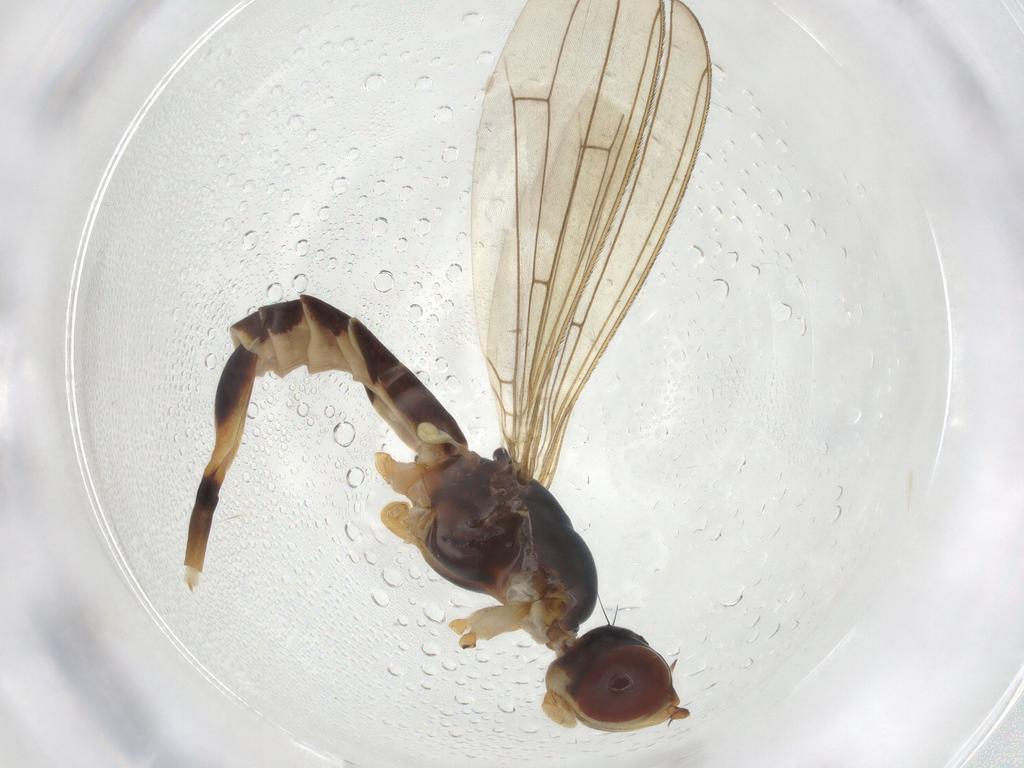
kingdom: Animalia
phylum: Arthropoda
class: Insecta
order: Diptera
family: Micropezidae
